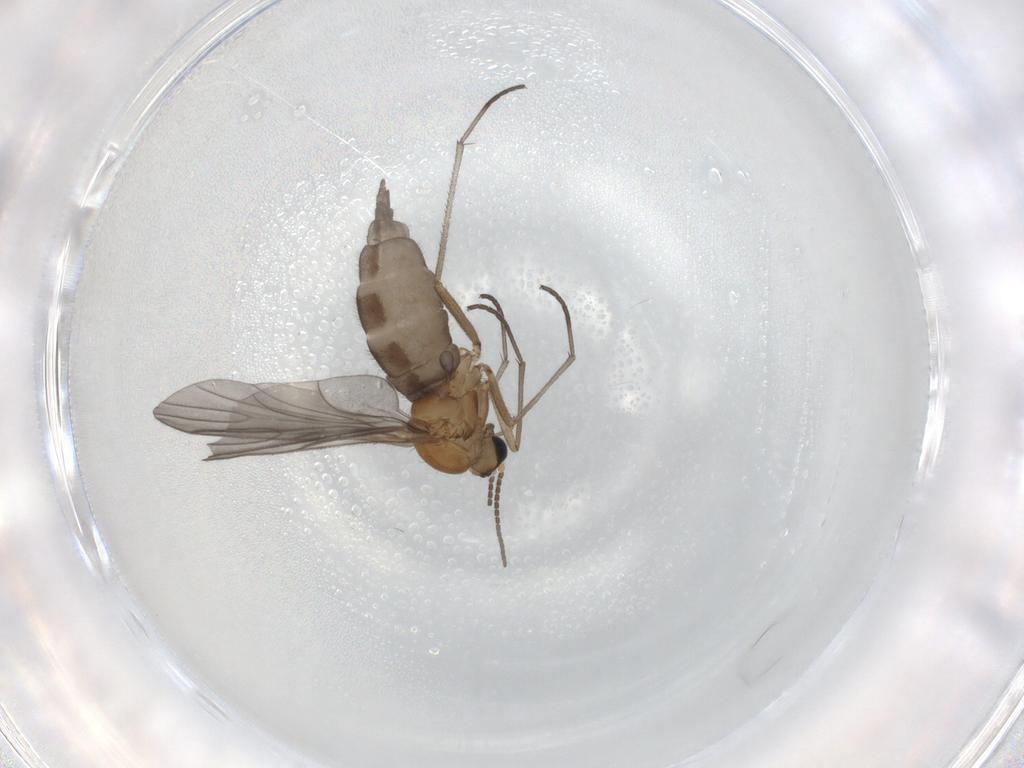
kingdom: Animalia
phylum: Arthropoda
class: Insecta
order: Diptera
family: Sciaridae
